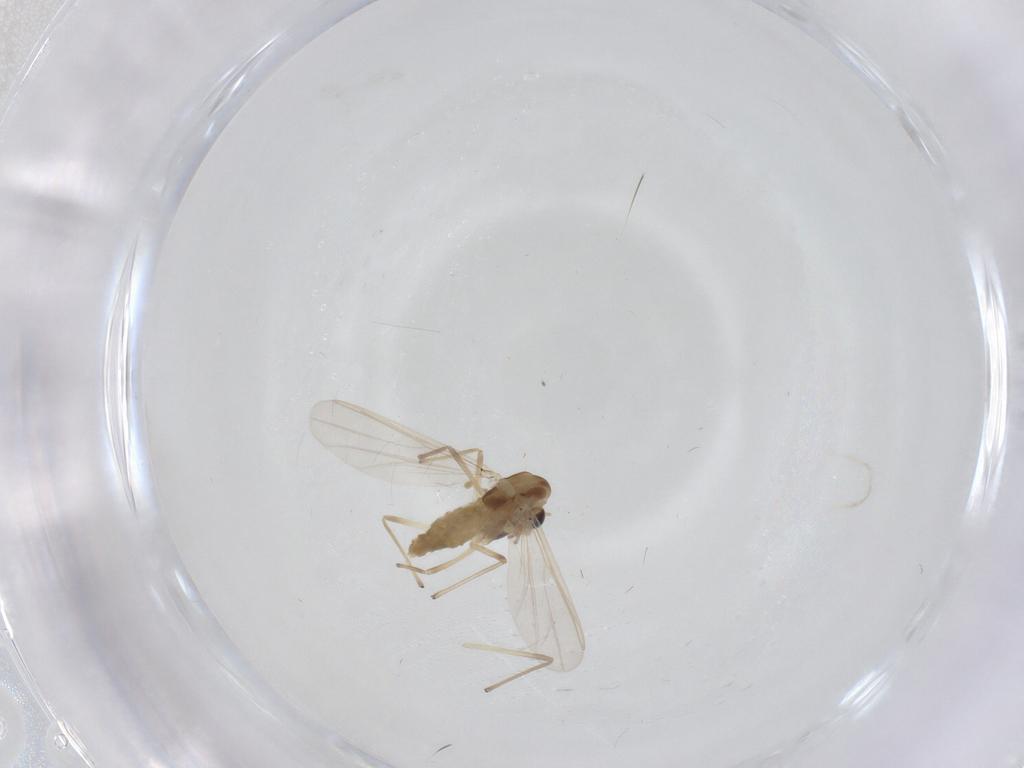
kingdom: Animalia
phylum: Arthropoda
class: Insecta
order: Diptera
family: Chironomidae
